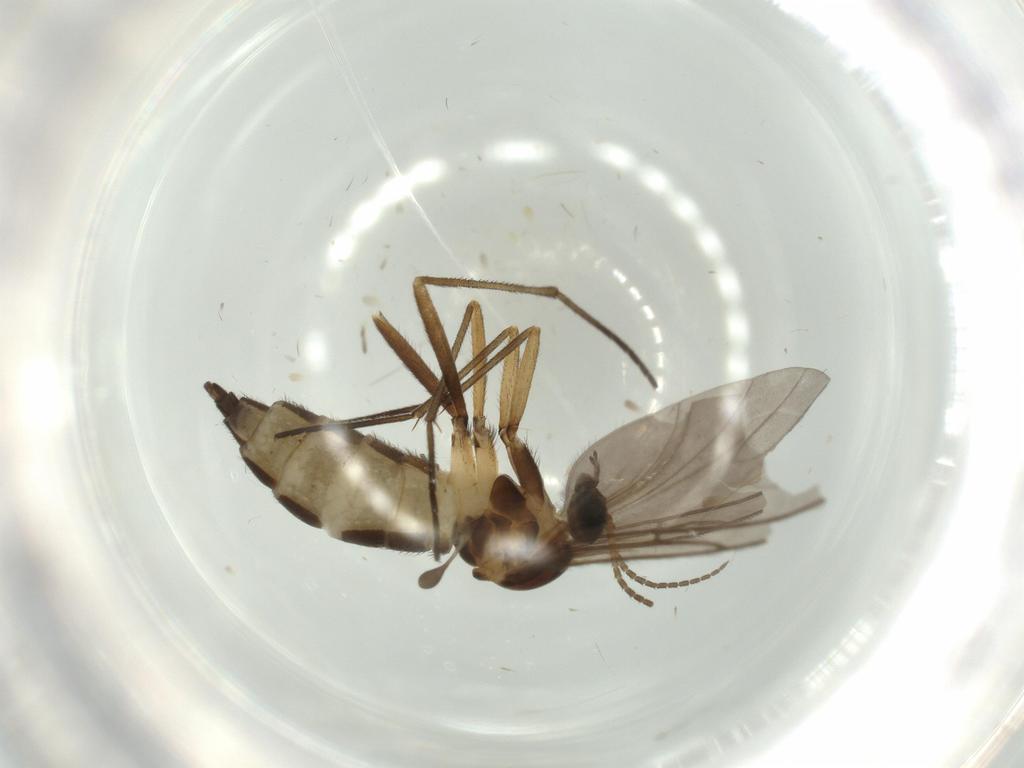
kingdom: Animalia
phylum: Arthropoda
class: Insecta
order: Diptera
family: Sciaridae
